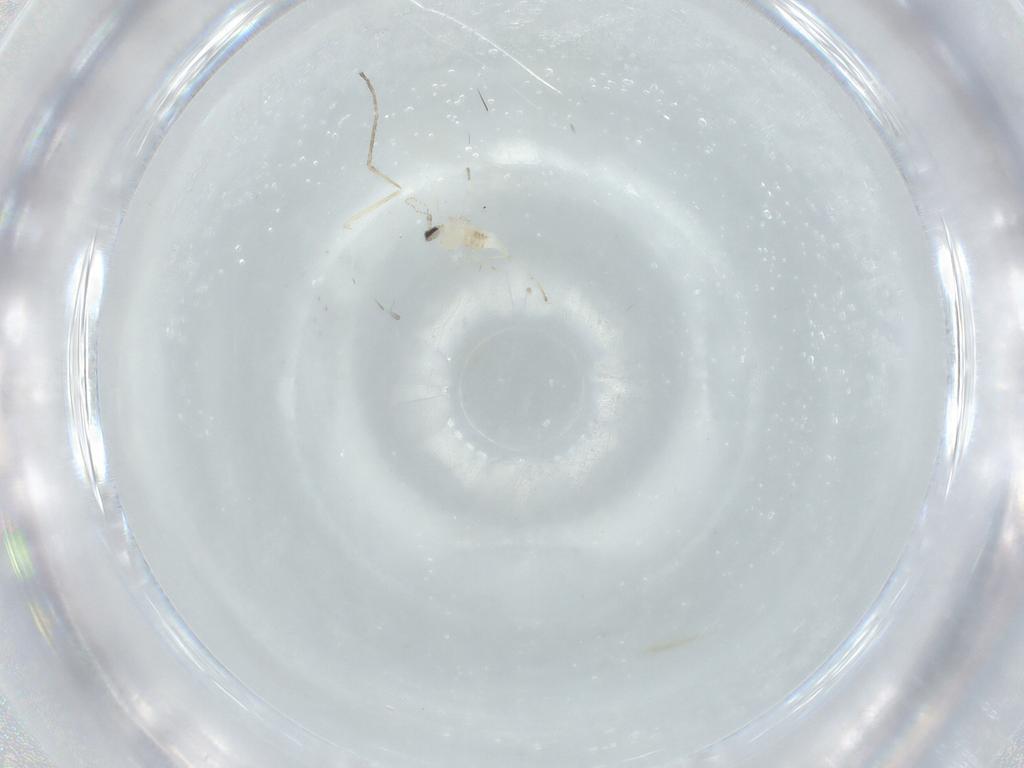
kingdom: Animalia
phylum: Arthropoda
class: Insecta
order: Diptera
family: Cecidomyiidae
